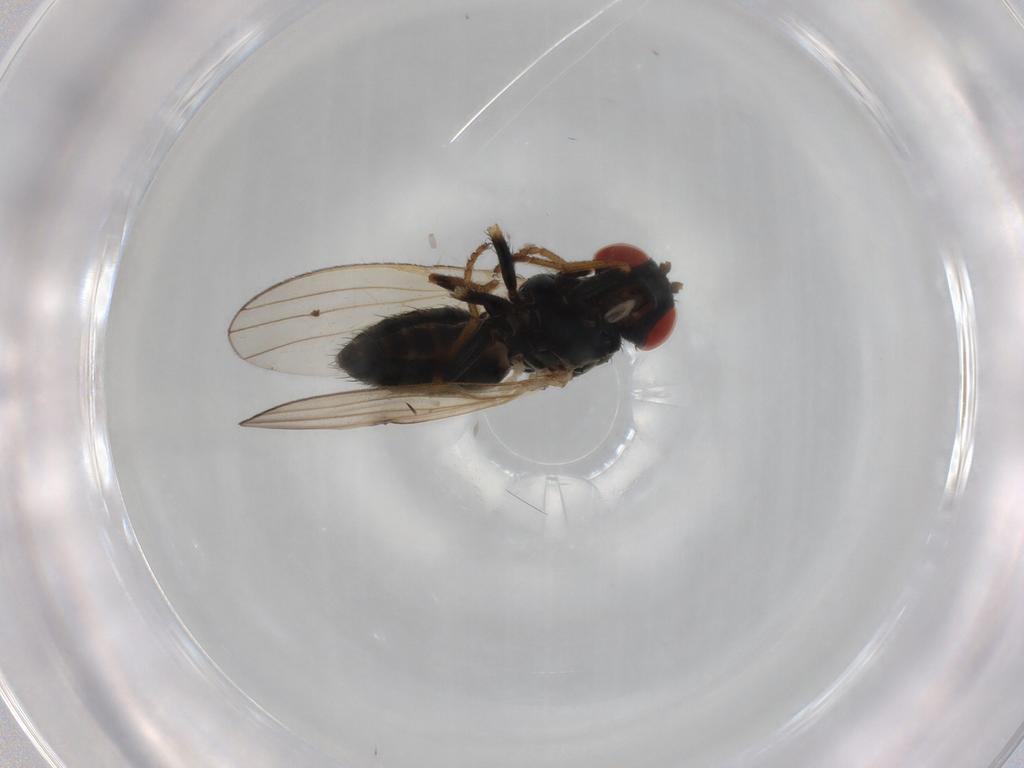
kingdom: Animalia
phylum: Arthropoda
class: Insecta
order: Diptera
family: Chamaemyiidae
